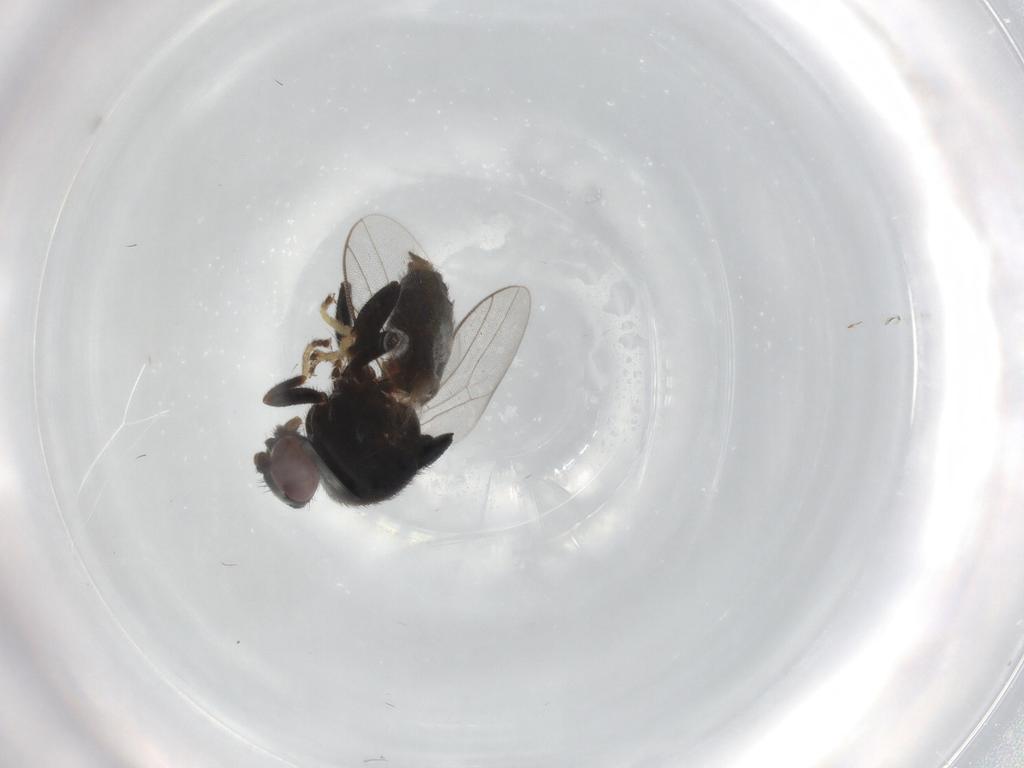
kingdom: Animalia
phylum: Arthropoda
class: Insecta
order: Diptera
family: Chloropidae
